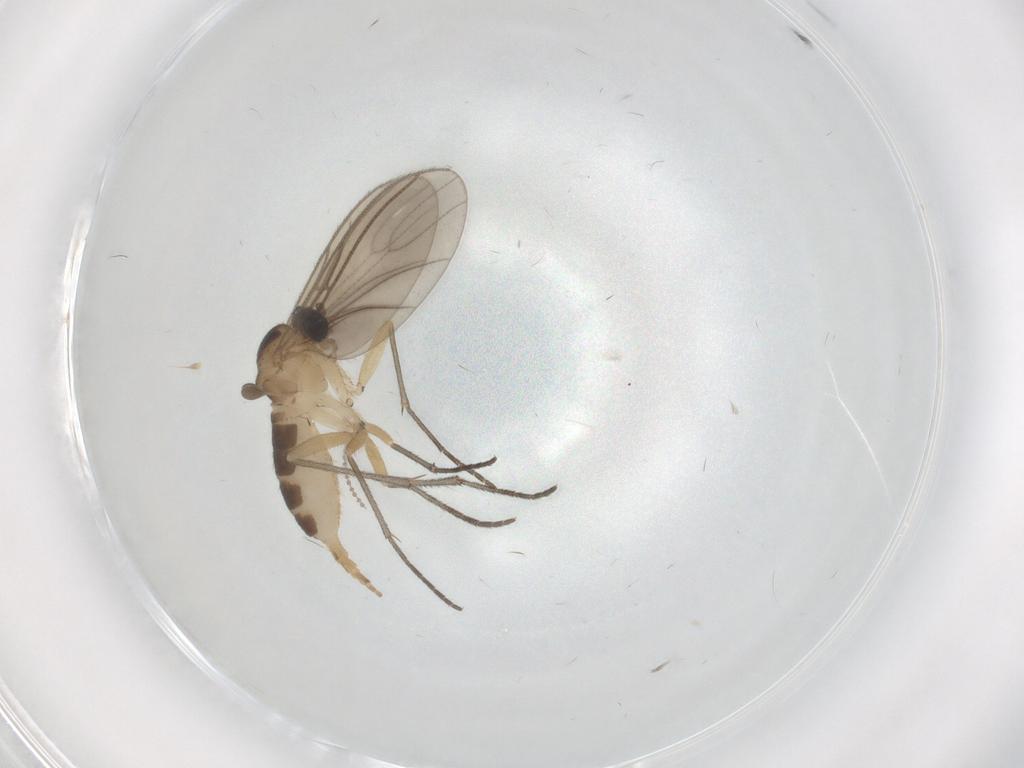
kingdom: Animalia
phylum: Arthropoda
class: Insecta
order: Diptera
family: Sciaridae
